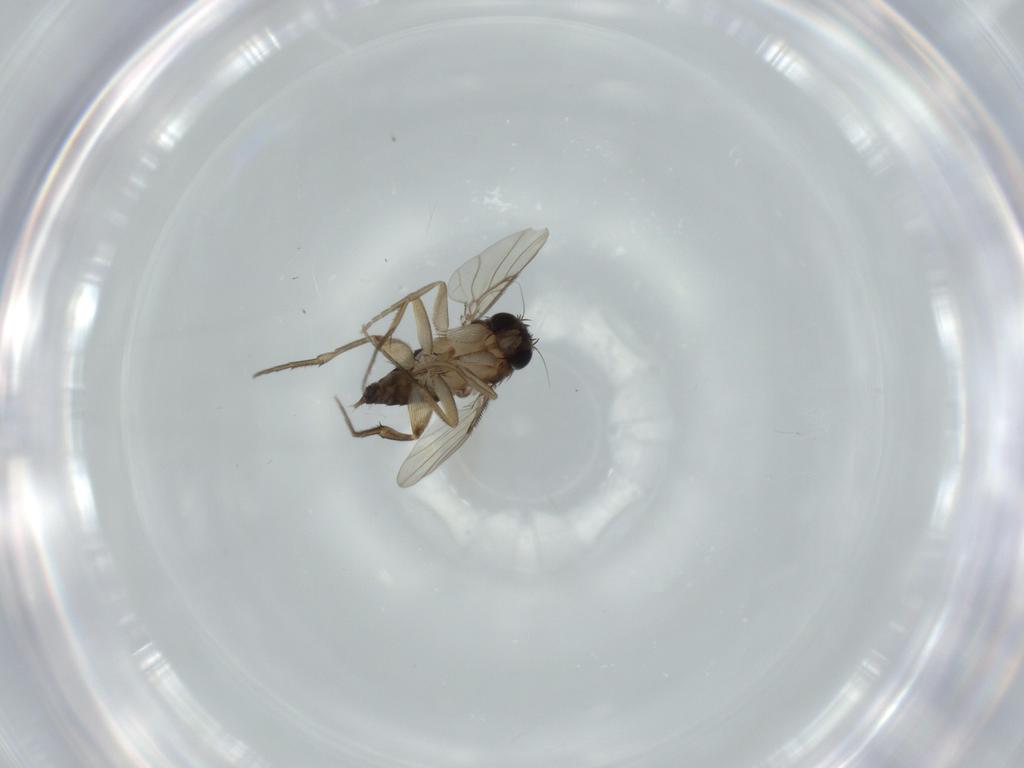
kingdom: Animalia
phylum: Arthropoda
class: Insecta
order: Diptera
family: Phoridae
